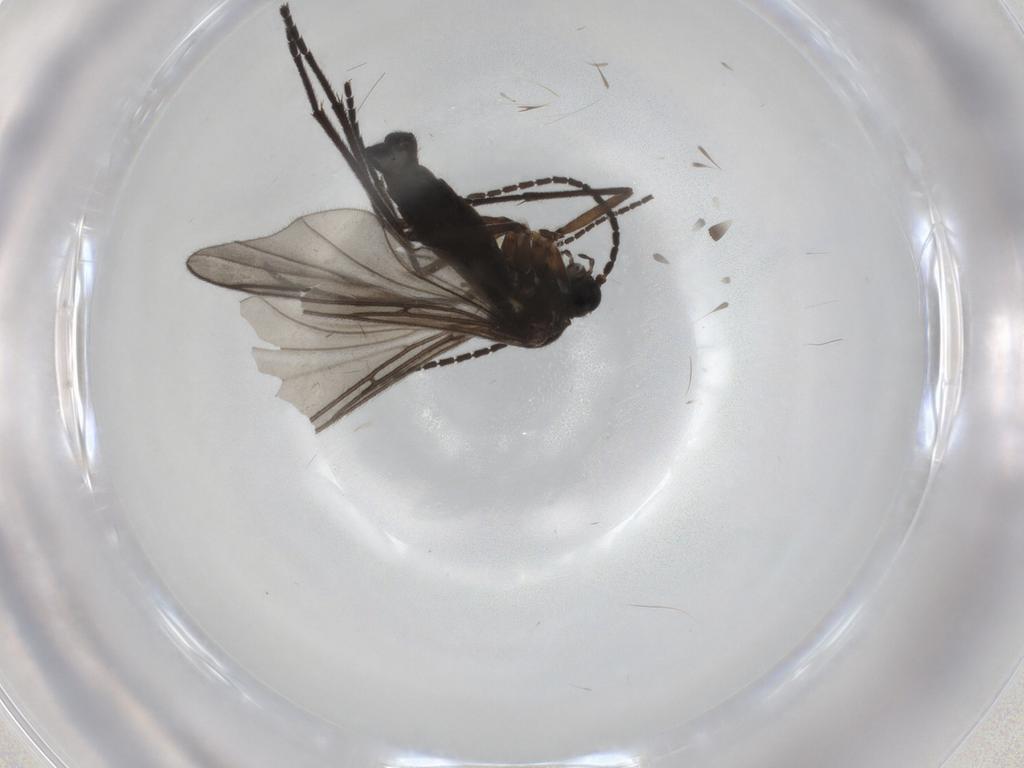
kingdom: Animalia
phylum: Arthropoda
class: Insecta
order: Diptera
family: Sciaridae
